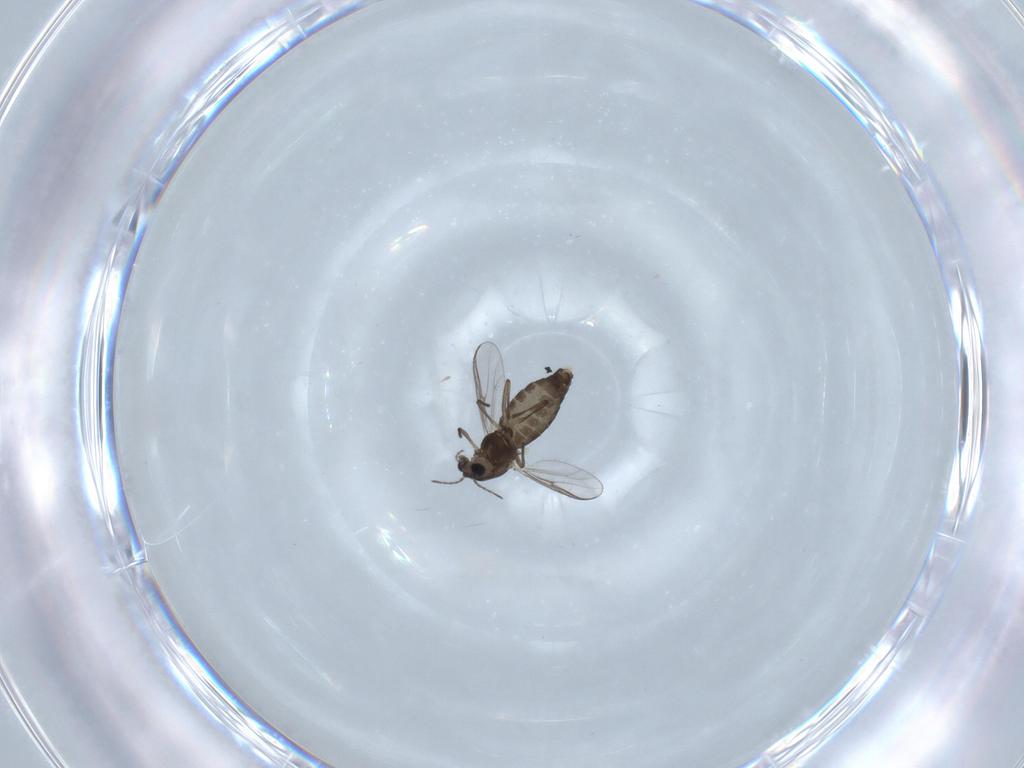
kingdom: Animalia
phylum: Arthropoda
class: Insecta
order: Diptera
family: Chironomidae
